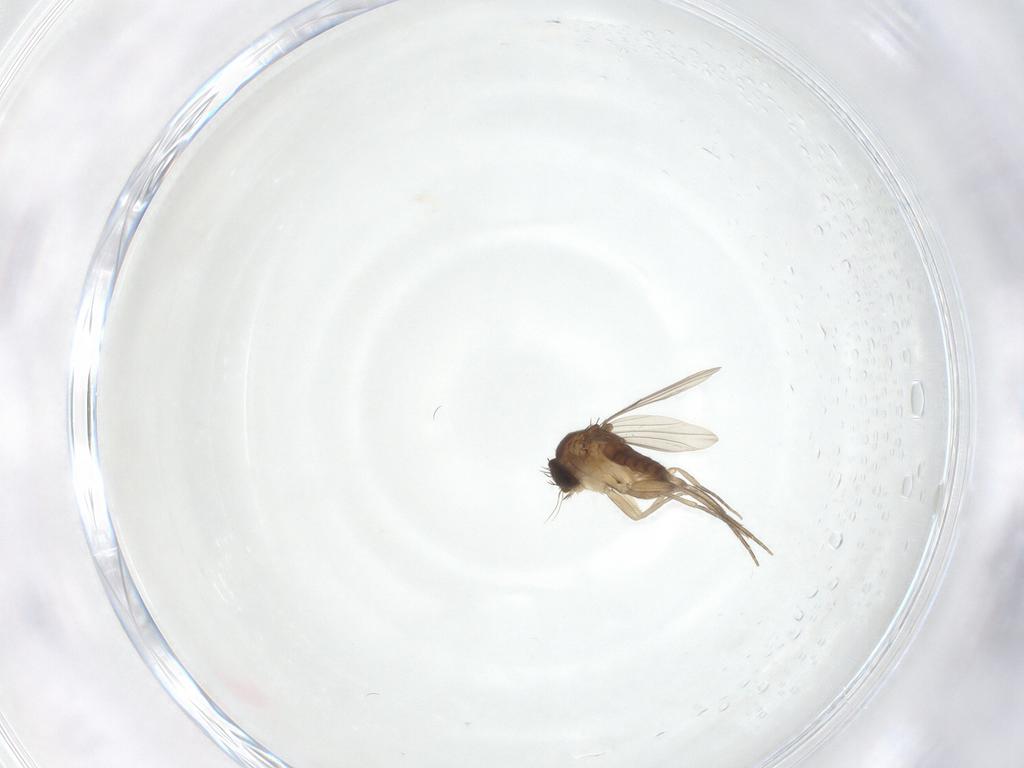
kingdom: Animalia
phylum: Arthropoda
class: Insecta
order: Diptera
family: Phoridae
